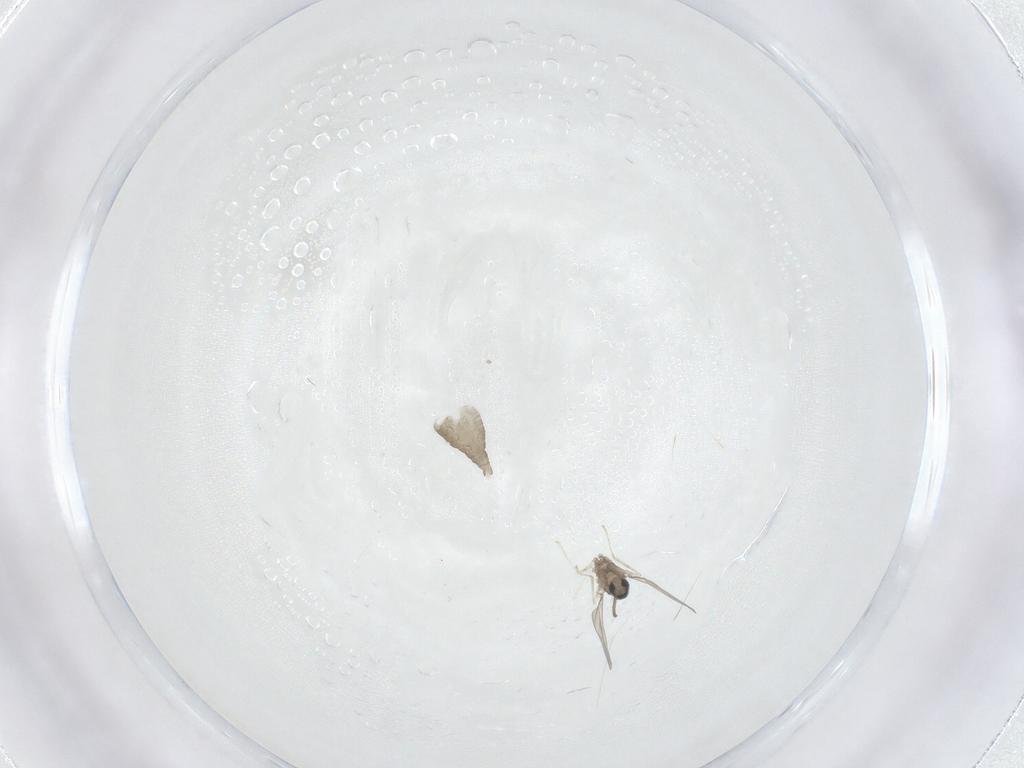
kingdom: Animalia
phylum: Arthropoda
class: Insecta
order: Diptera
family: Cecidomyiidae
